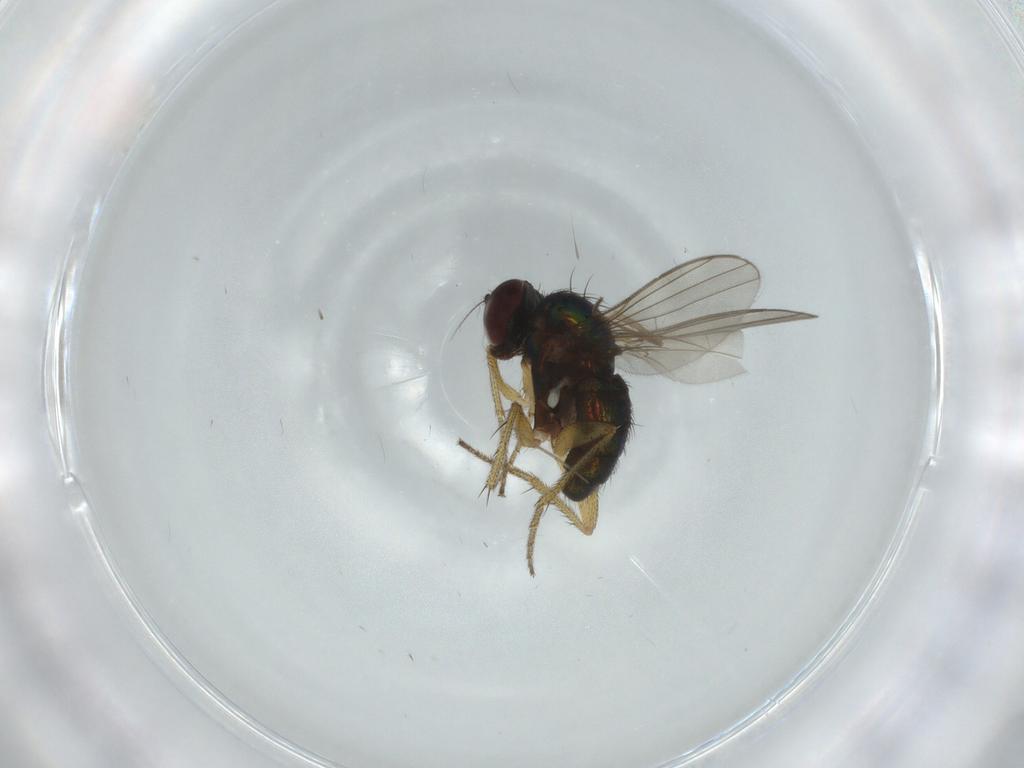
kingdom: Animalia
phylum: Arthropoda
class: Insecta
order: Diptera
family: Dolichopodidae
